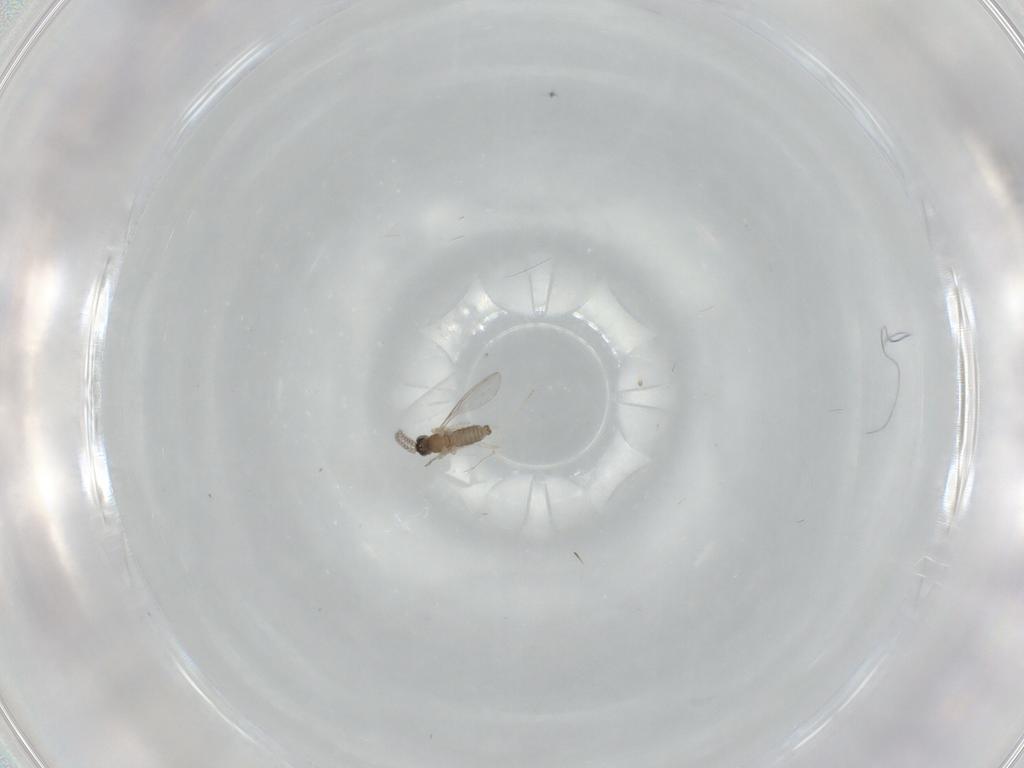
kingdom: Animalia
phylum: Arthropoda
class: Insecta
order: Diptera
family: Cecidomyiidae
